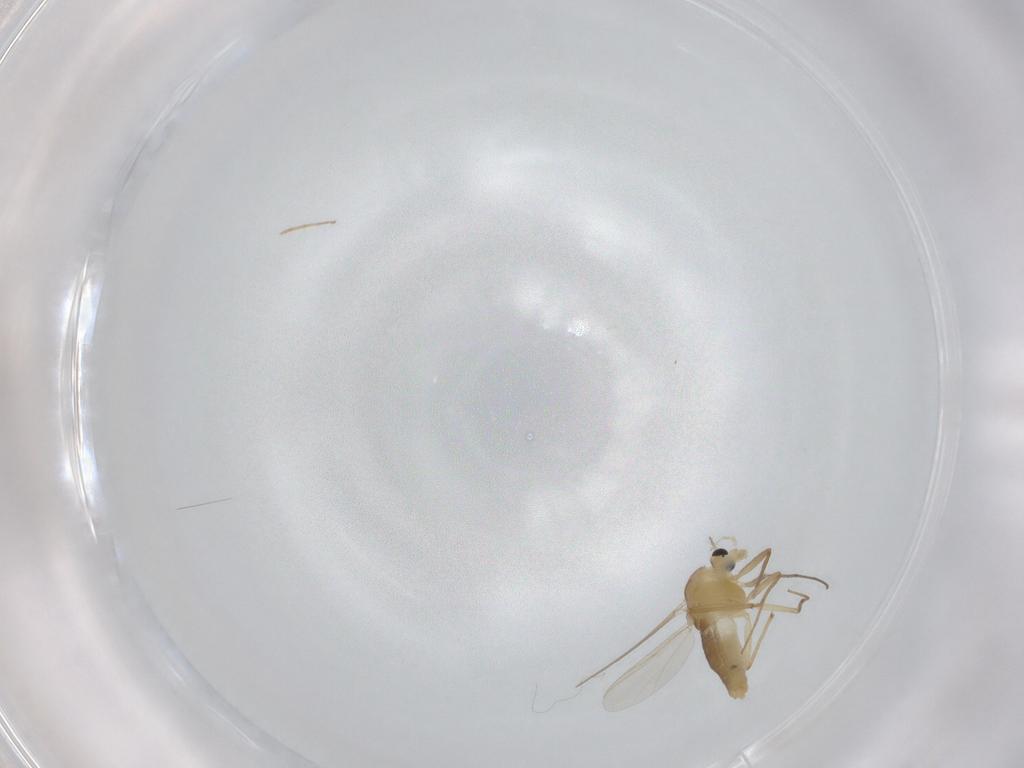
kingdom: Animalia
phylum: Arthropoda
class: Insecta
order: Diptera
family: Chironomidae
